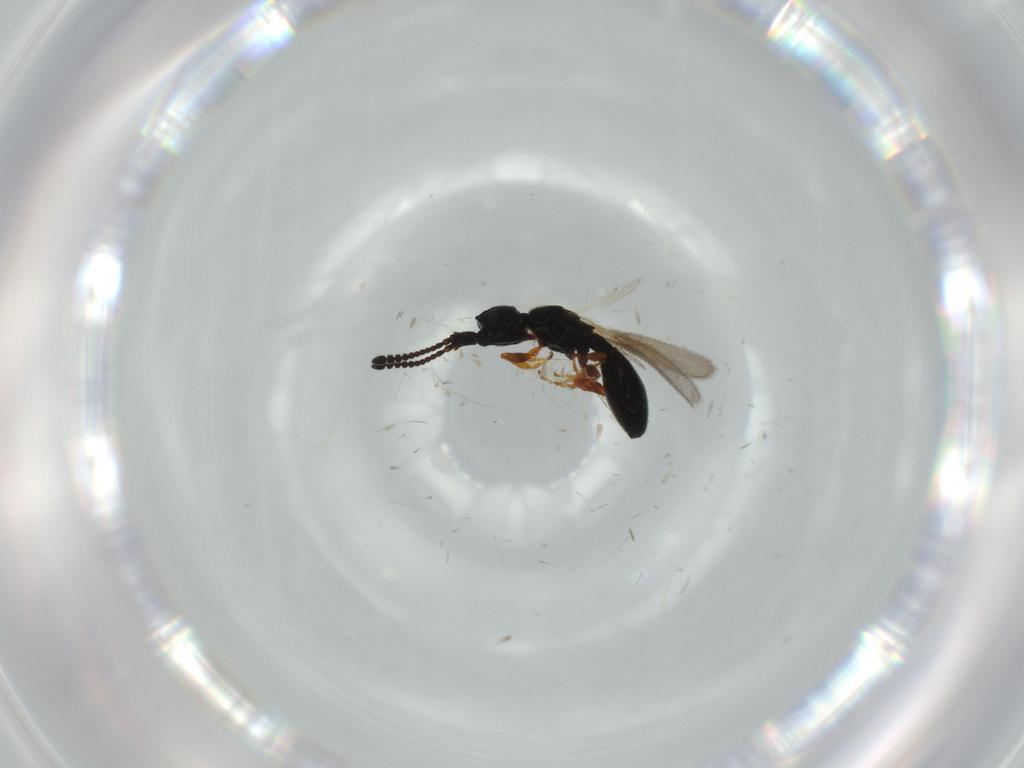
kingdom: Animalia
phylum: Arthropoda
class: Insecta
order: Hymenoptera
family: Diapriidae
